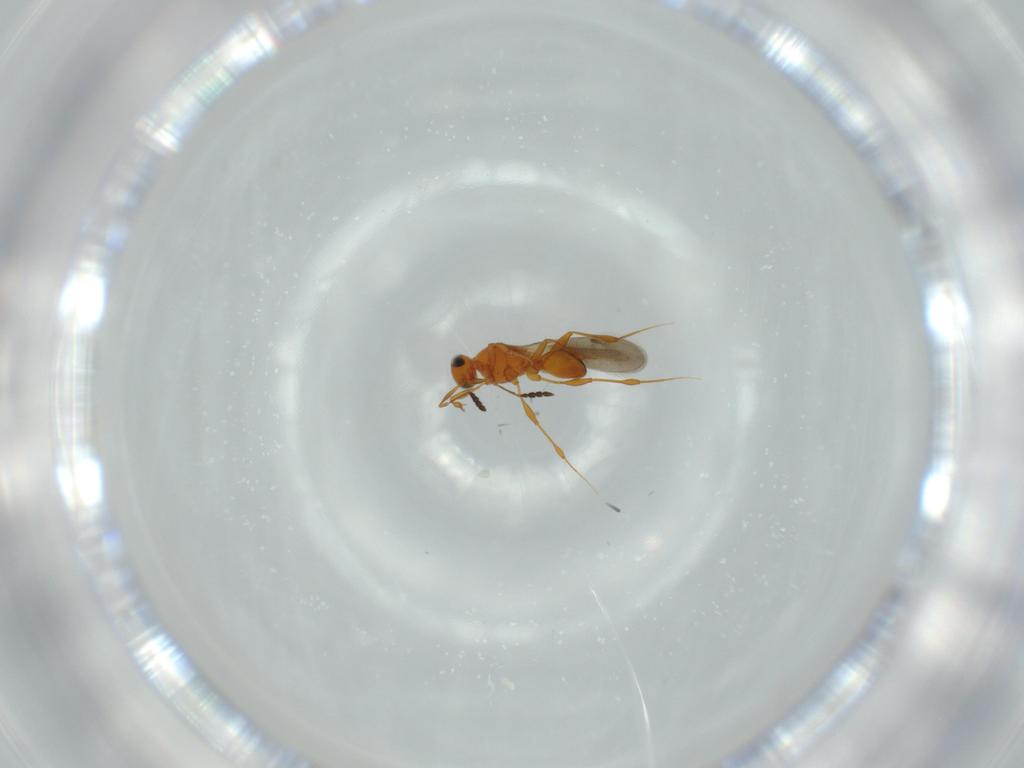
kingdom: Animalia
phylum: Arthropoda
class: Insecta
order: Hymenoptera
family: Platygastridae
